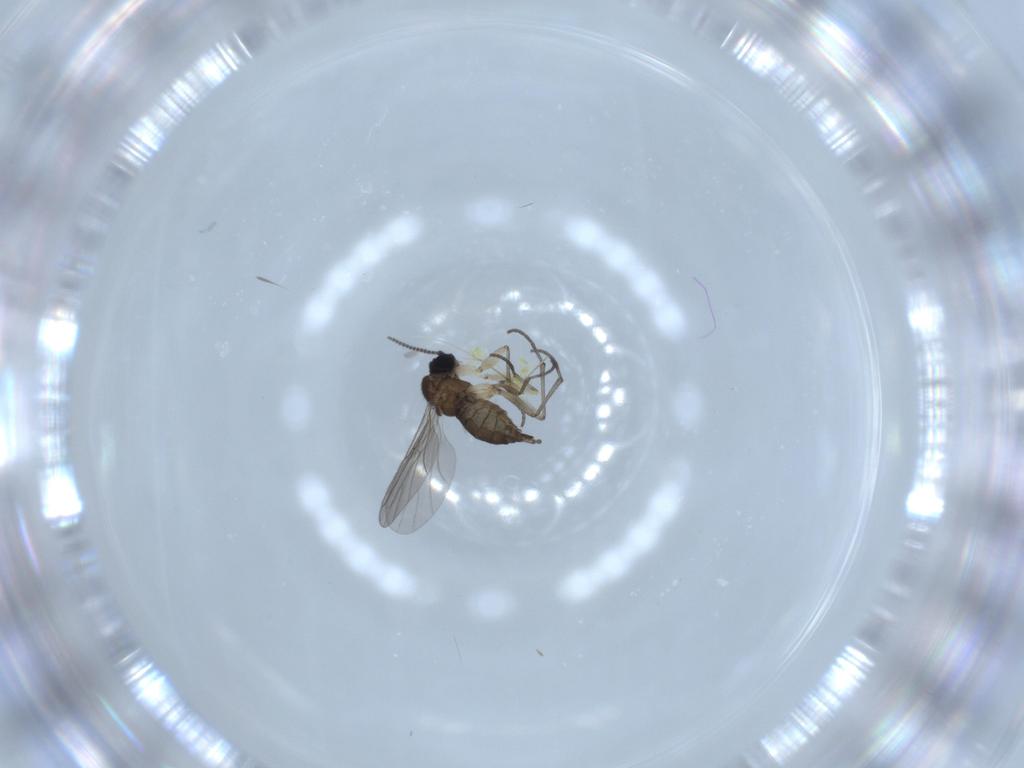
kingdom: Animalia
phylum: Arthropoda
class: Insecta
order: Diptera
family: Sciaridae
